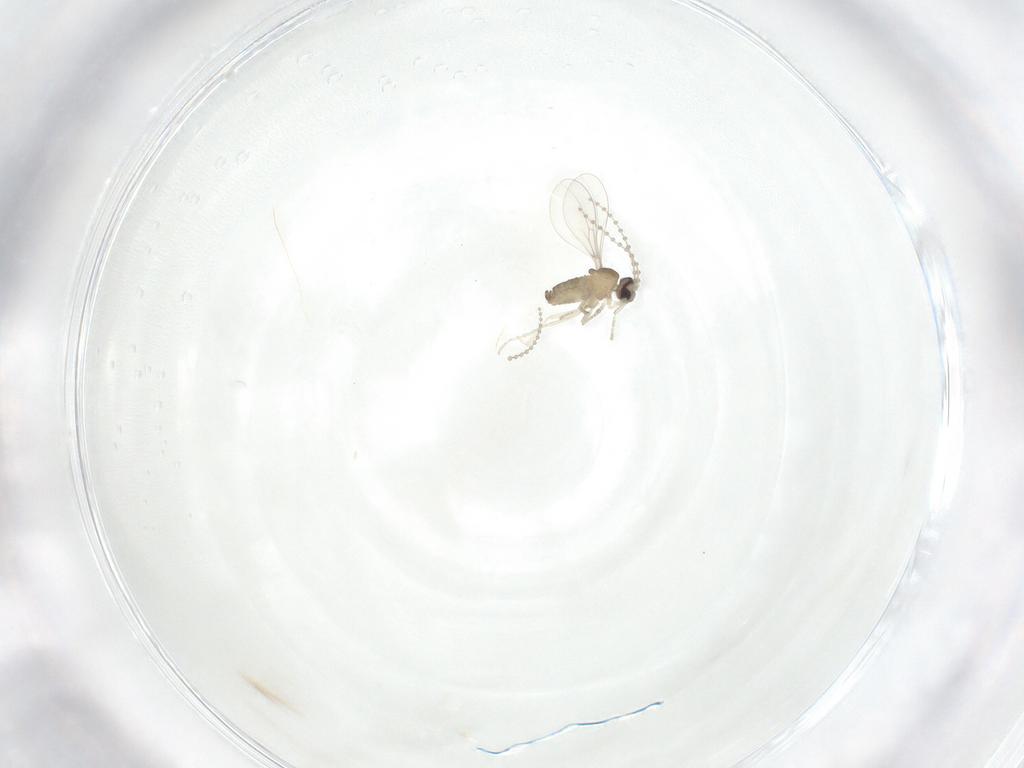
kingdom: Animalia
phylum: Arthropoda
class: Insecta
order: Diptera
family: Cecidomyiidae
